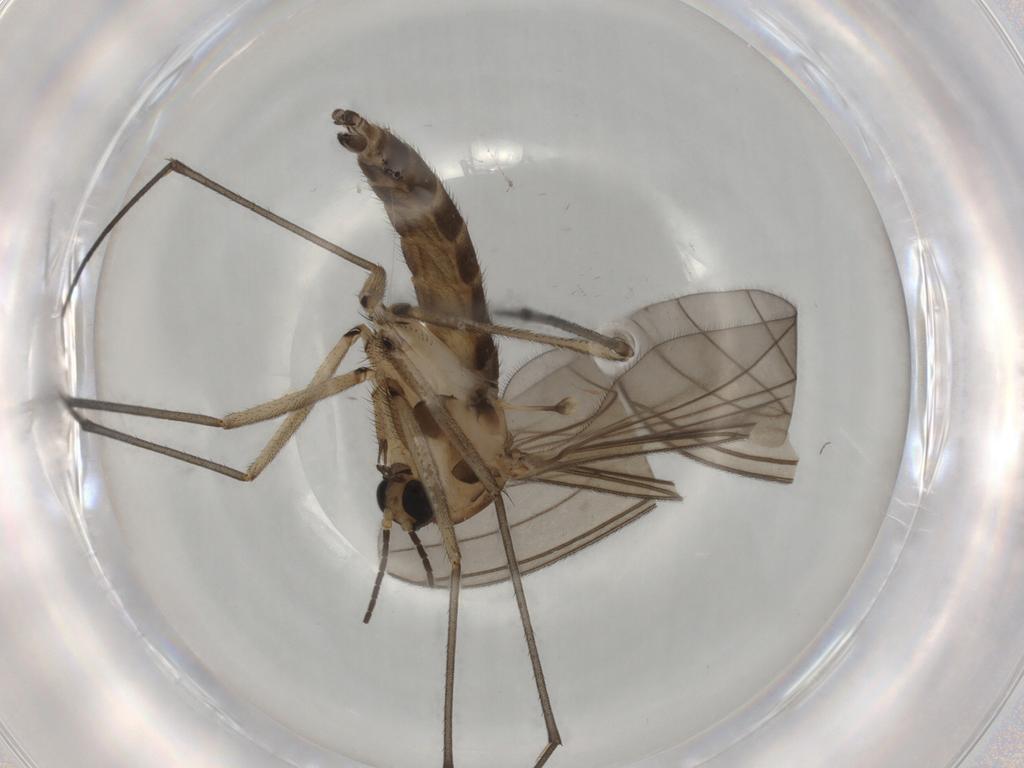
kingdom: Animalia
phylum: Arthropoda
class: Insecta
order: Diptera
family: Sciaridae
